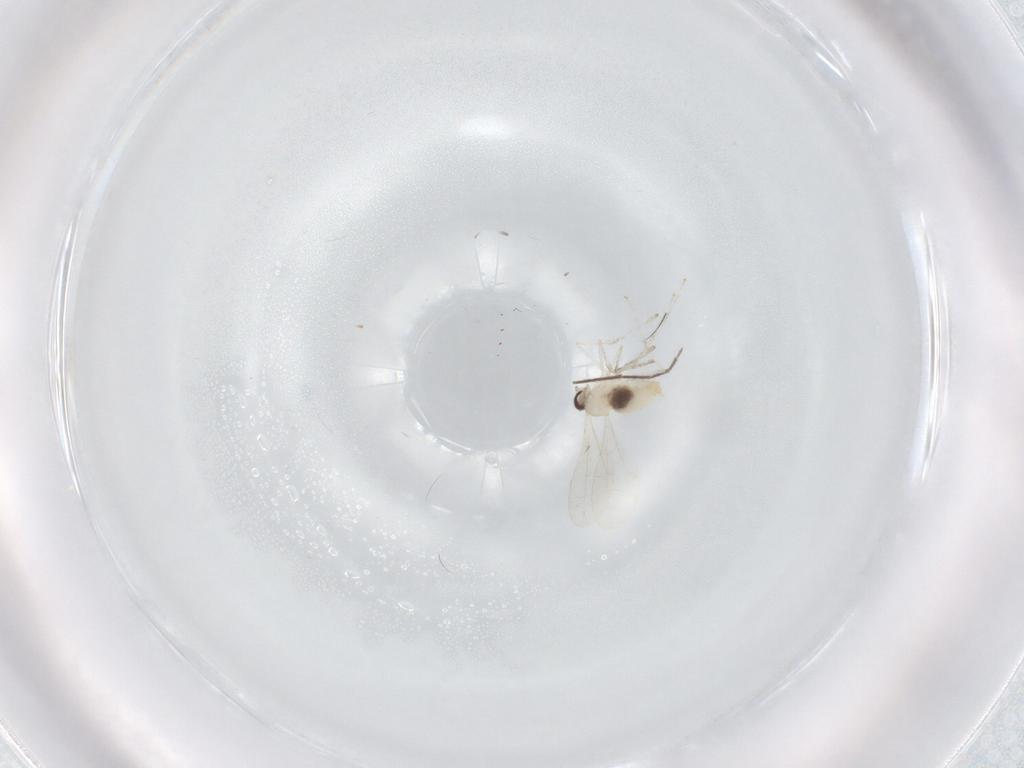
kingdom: Animalia
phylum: Arthropoda
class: Insecta
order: Diptera
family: Chironomidae
